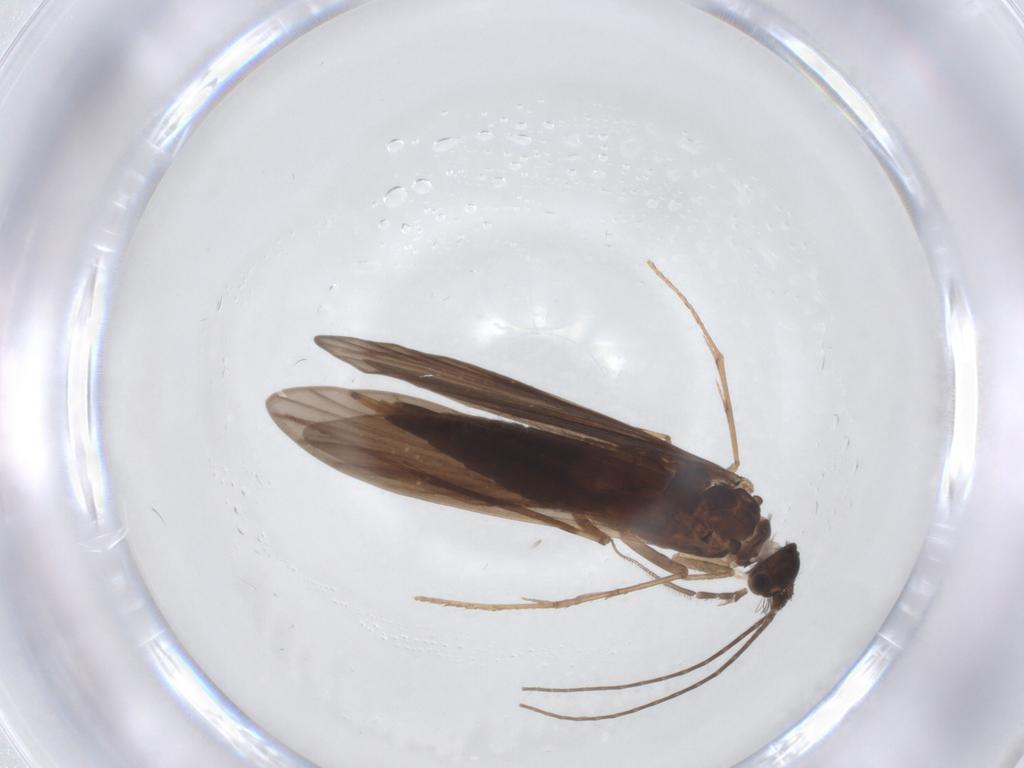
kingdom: Animalia
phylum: Arthropoda
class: Insecta
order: Trichoptera
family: Xiphocentronidae
